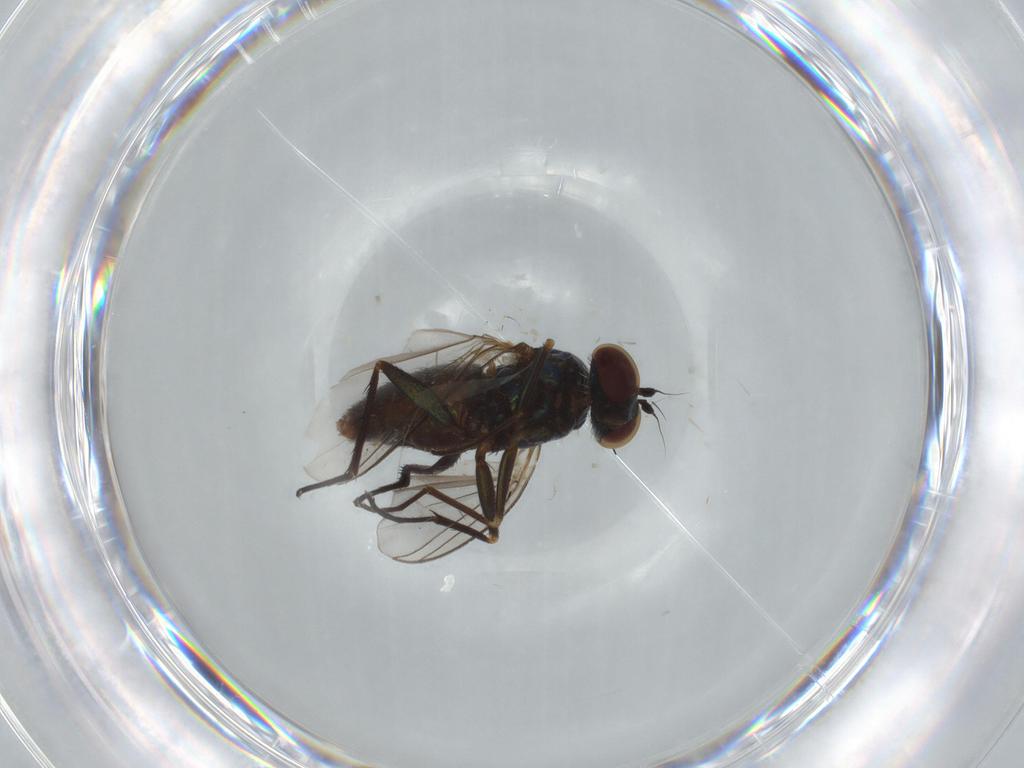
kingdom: Animalia
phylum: Arthropoda
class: Insecta
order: Diptera
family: Dolichopodidae
